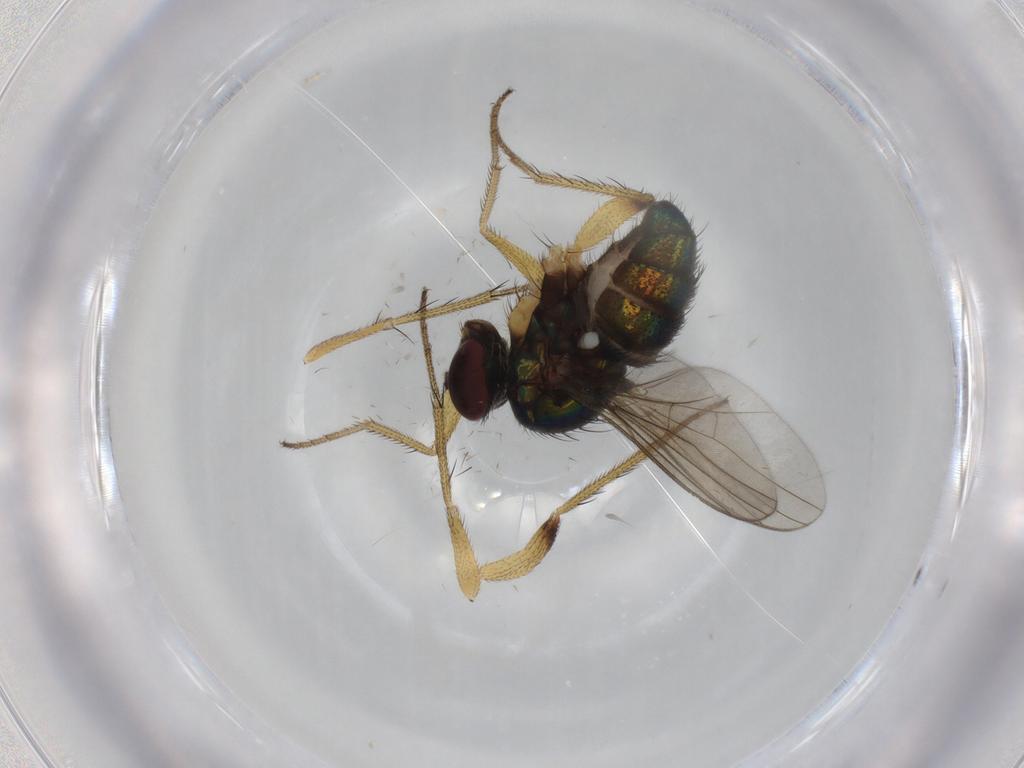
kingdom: Animalia
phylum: Arthropoda
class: Insecta
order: Diptera
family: Dolichopodidae
